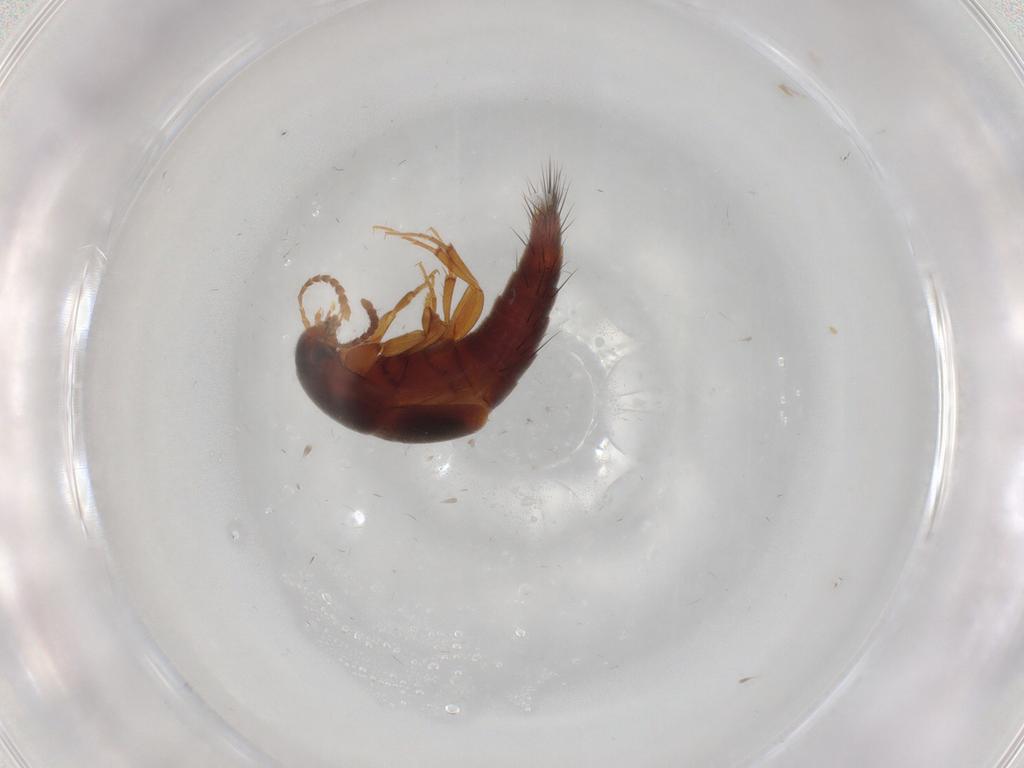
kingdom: Animalia
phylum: Arthropoda
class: Insecta
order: Coleoptera
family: Staphylinidae
